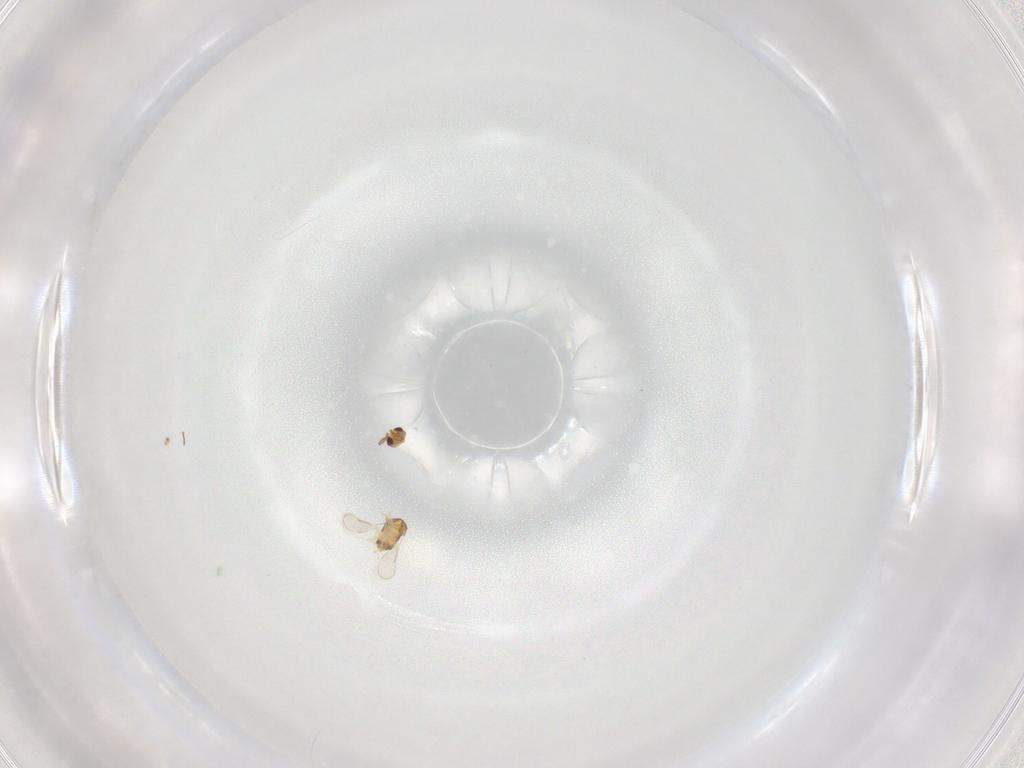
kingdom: Animalia
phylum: Arthropoda
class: Insecta
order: Hymenoptera
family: Aphelinidae
